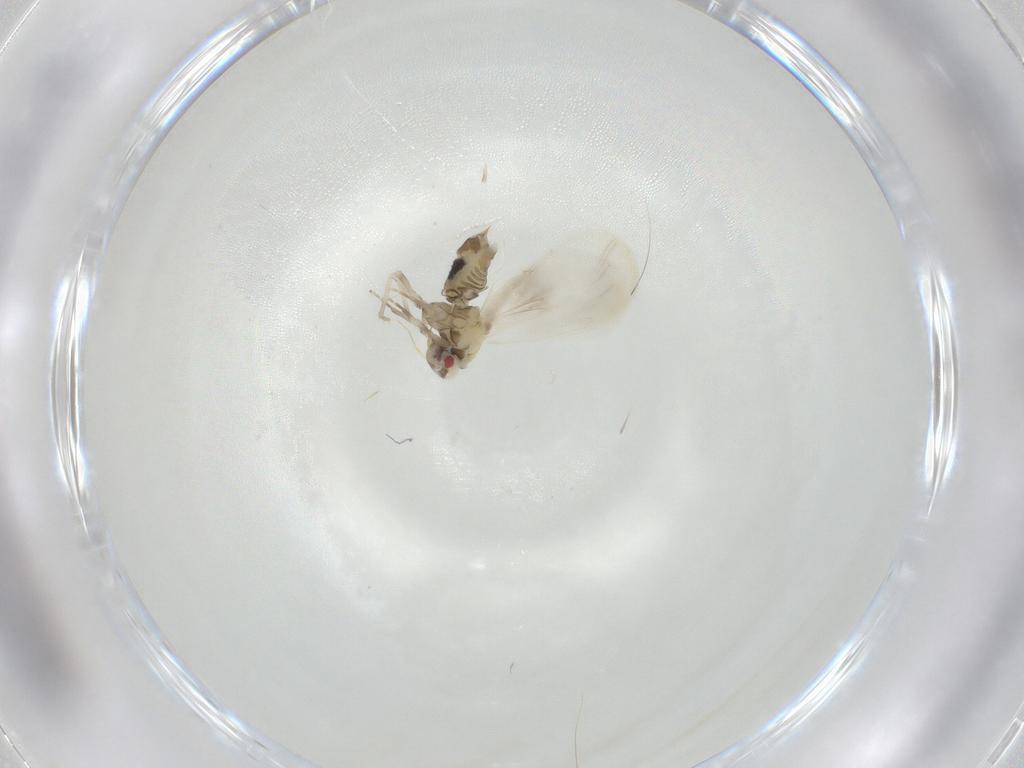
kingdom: Animalia
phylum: Arthropoda
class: Insecta
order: Hemiptera
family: Aleyrodidae
